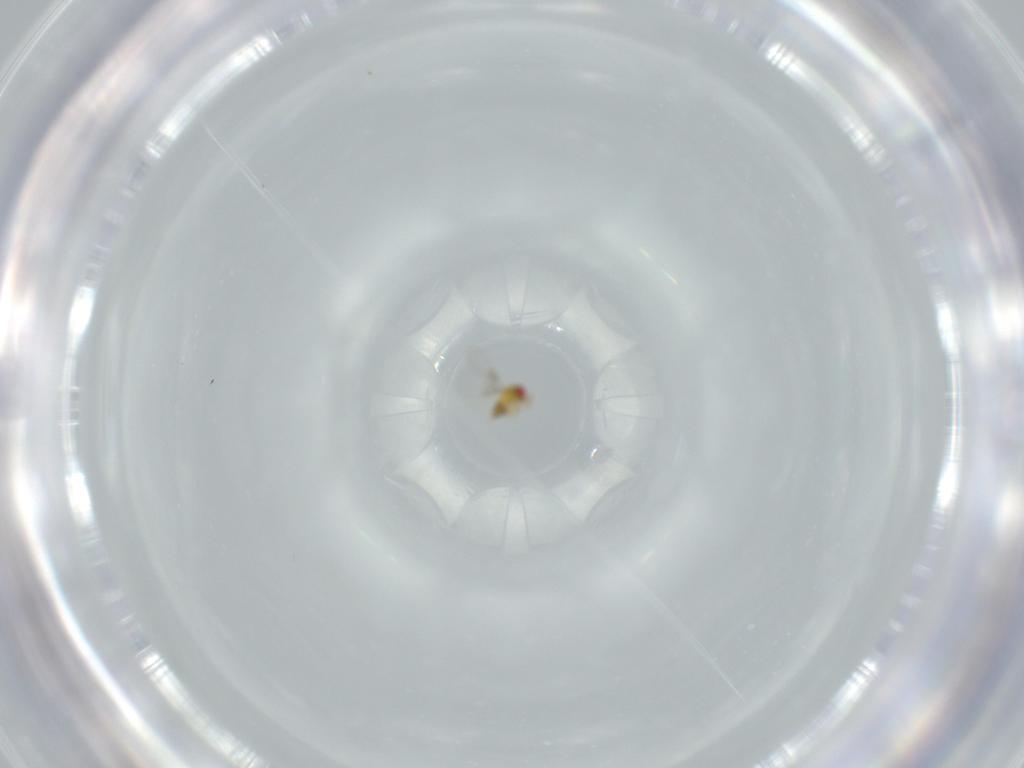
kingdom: Animalia
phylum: Arthropoda
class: Insecta
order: Hymenoptera
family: Trichogrammatidae
